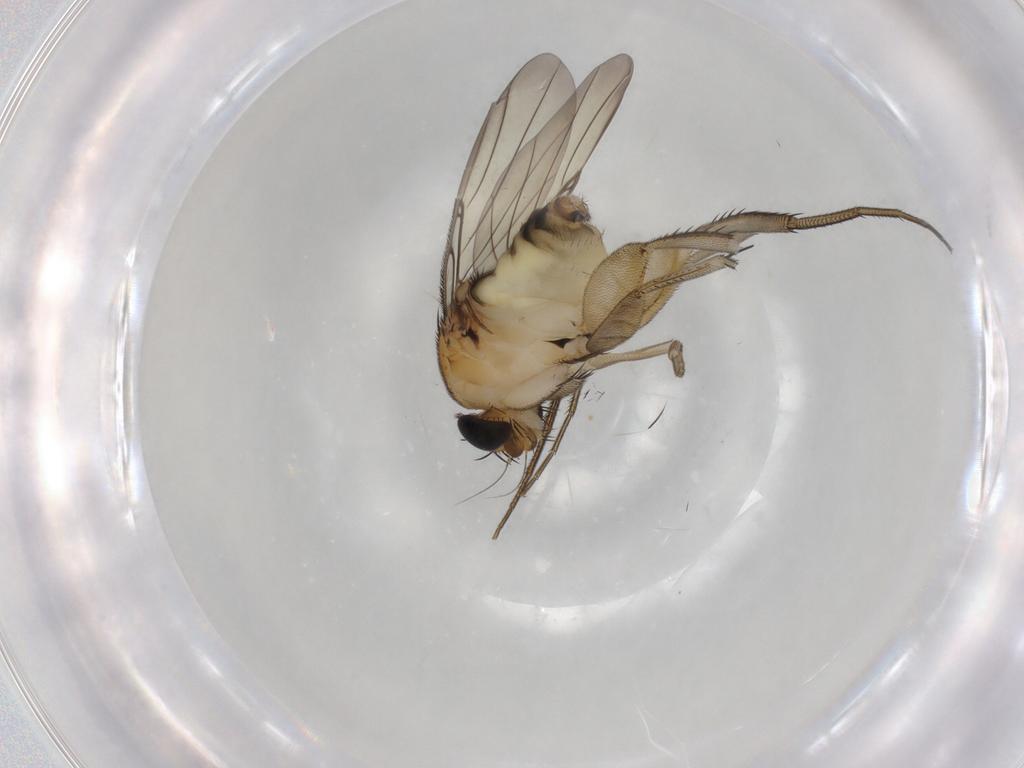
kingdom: Animalia
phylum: Arthropoda
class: Insecta
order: Diptera
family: Phoridae
